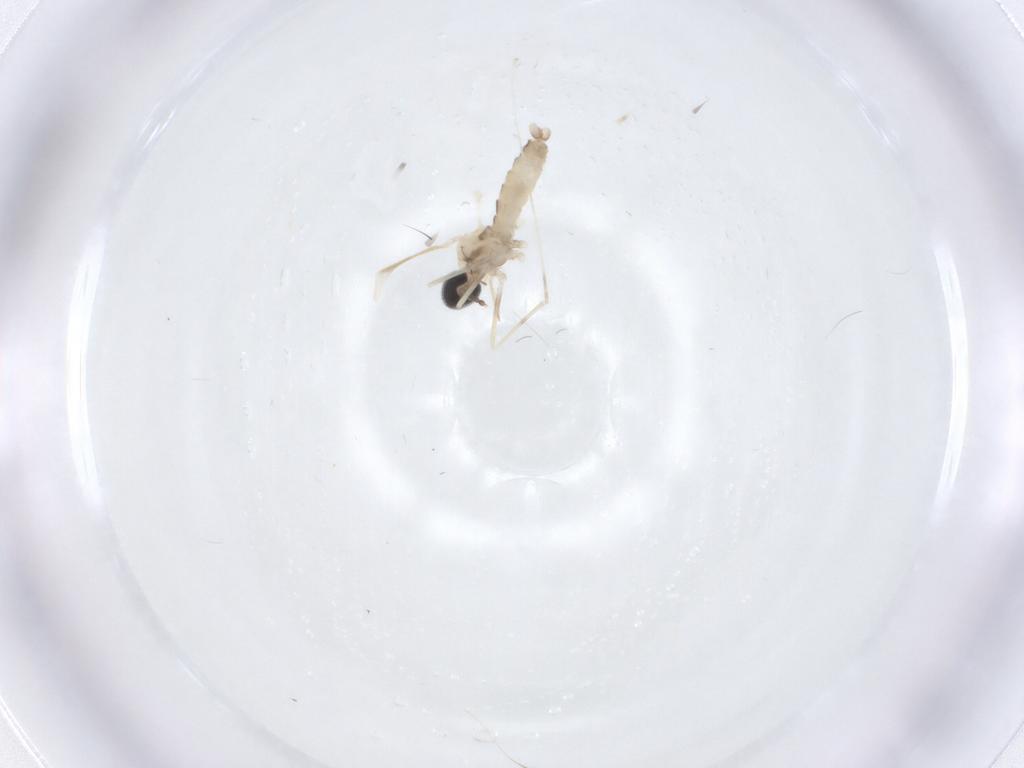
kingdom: Animalia
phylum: Arthropoda
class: Insecta
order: Diptera
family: Cecidomyiidae
